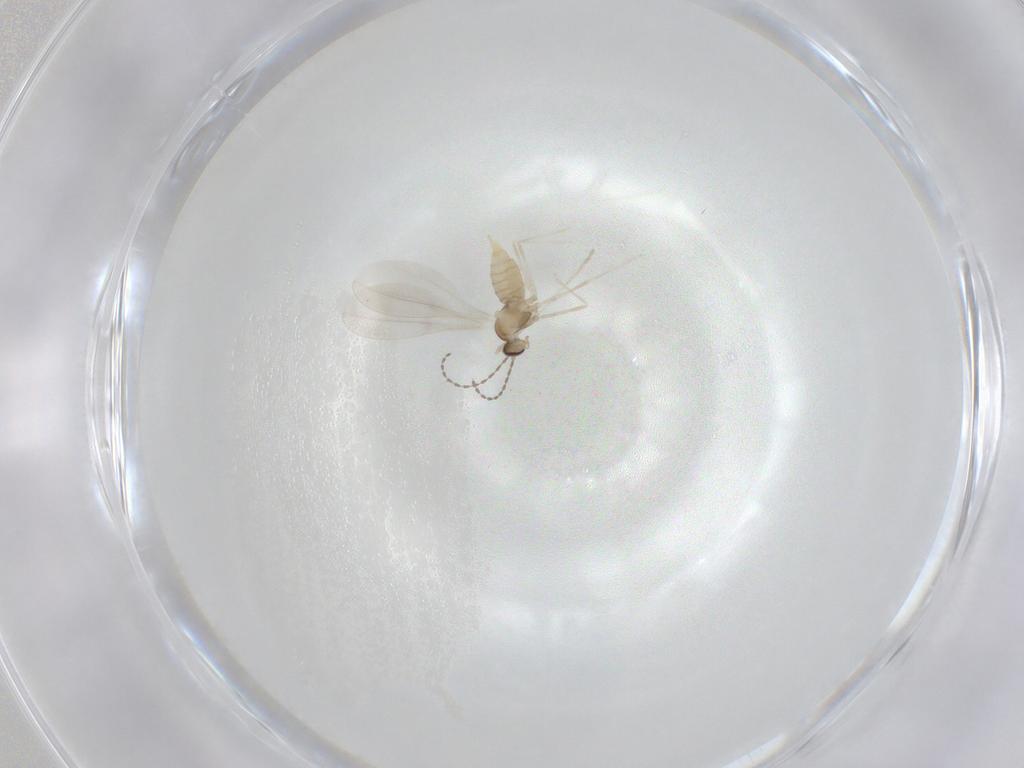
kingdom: Animalia
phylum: Arthropoda
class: Insecta
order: Diptera
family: Cecidomyiidae
